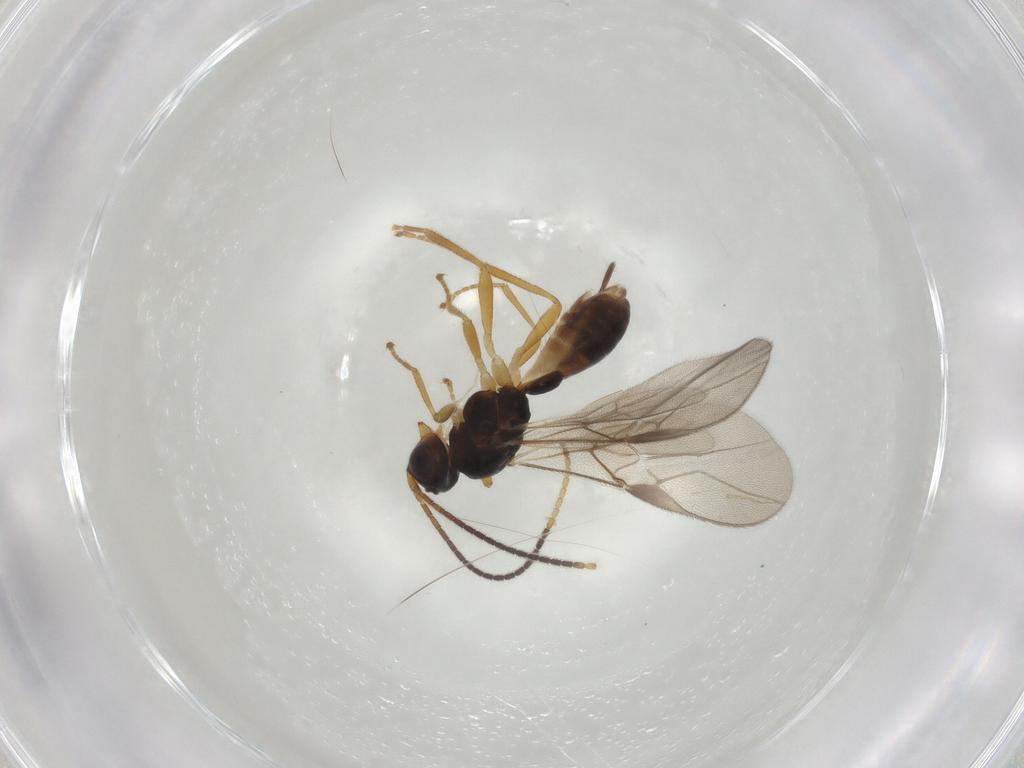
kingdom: Animalia
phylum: Arthropoda
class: Insecta
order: Hymenoptera
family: Braconidae
